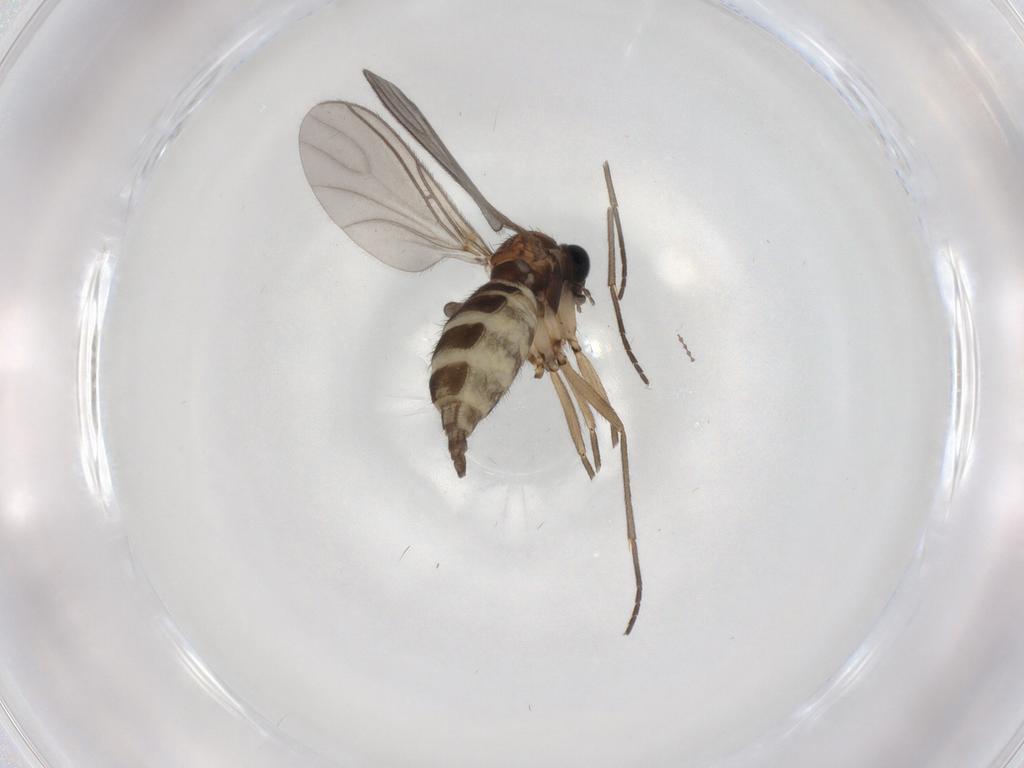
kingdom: Animalia
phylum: Arthropoda
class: Insecta
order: Diptera
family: Sciaridae
